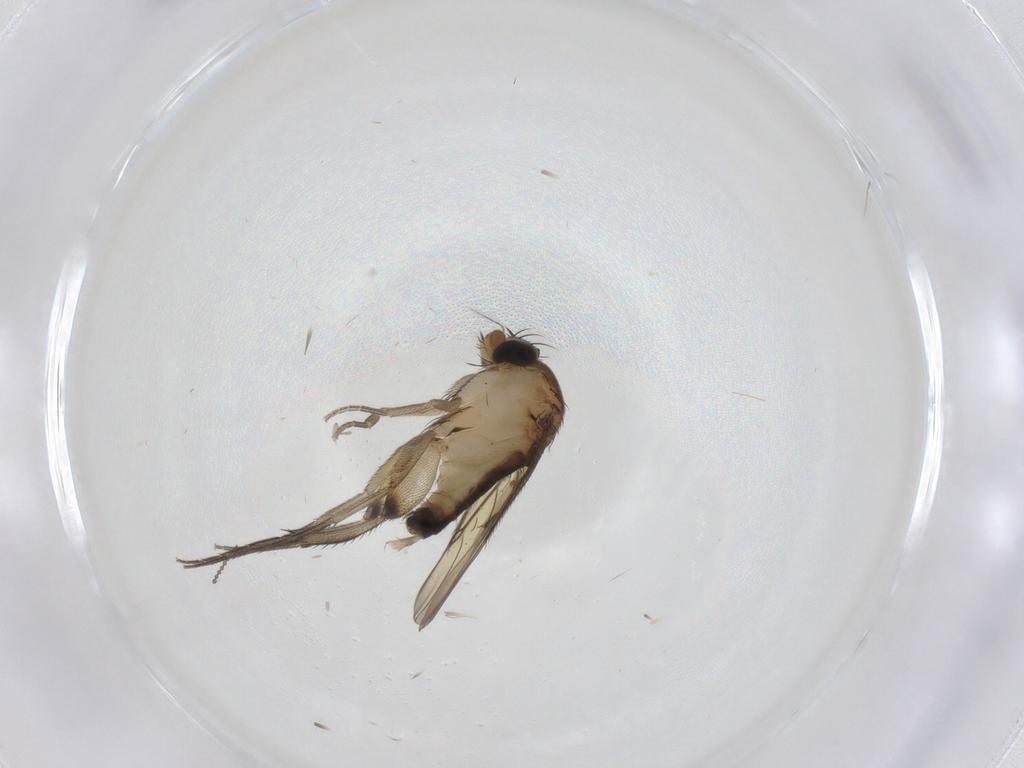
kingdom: Animalia
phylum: Arthropoda
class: Insecta
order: Diptera
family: Phoridae
